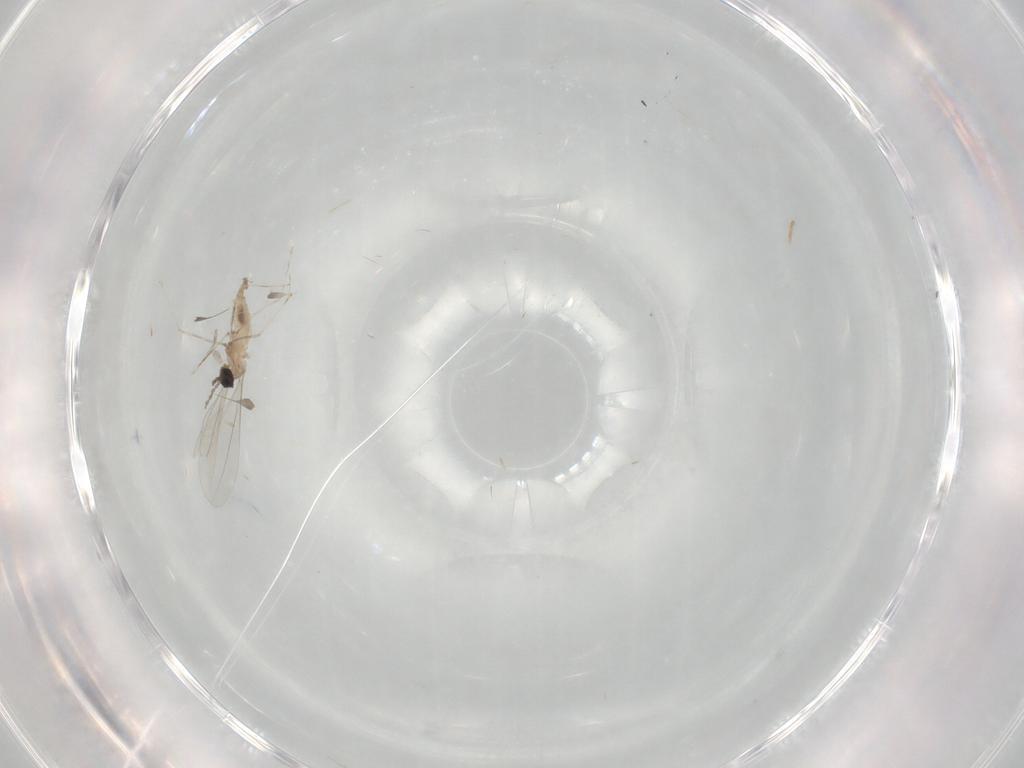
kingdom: Animalia
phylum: Arthropoda
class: Insecta
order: Diptera
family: Phoridae
